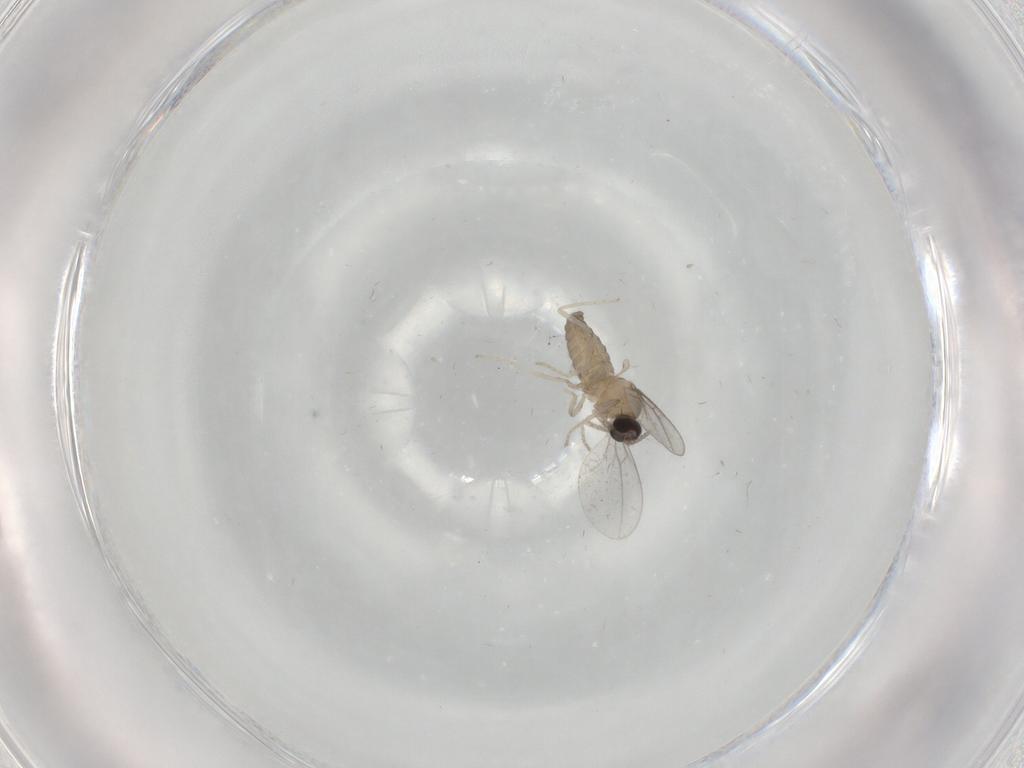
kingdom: Animalia
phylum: Arthropoda
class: Insecta
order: Diptera
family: Cecidomyiidae
